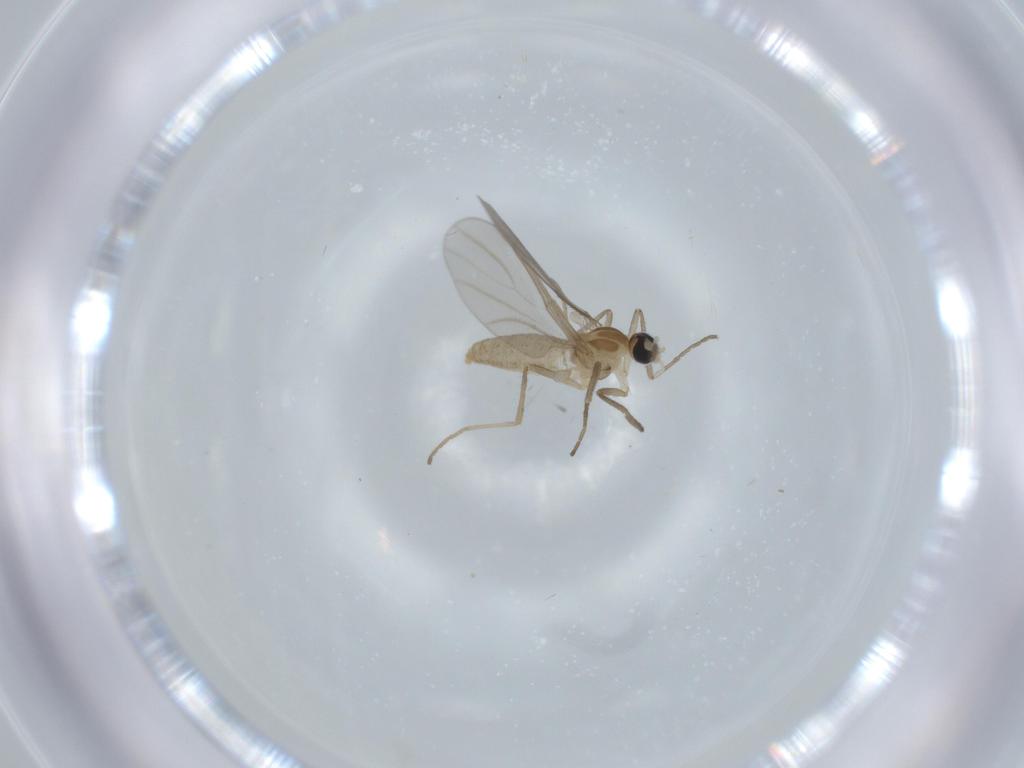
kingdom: Animalia
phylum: Arthropoda
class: Insecta
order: Diptera
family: Cecidomyiidae
